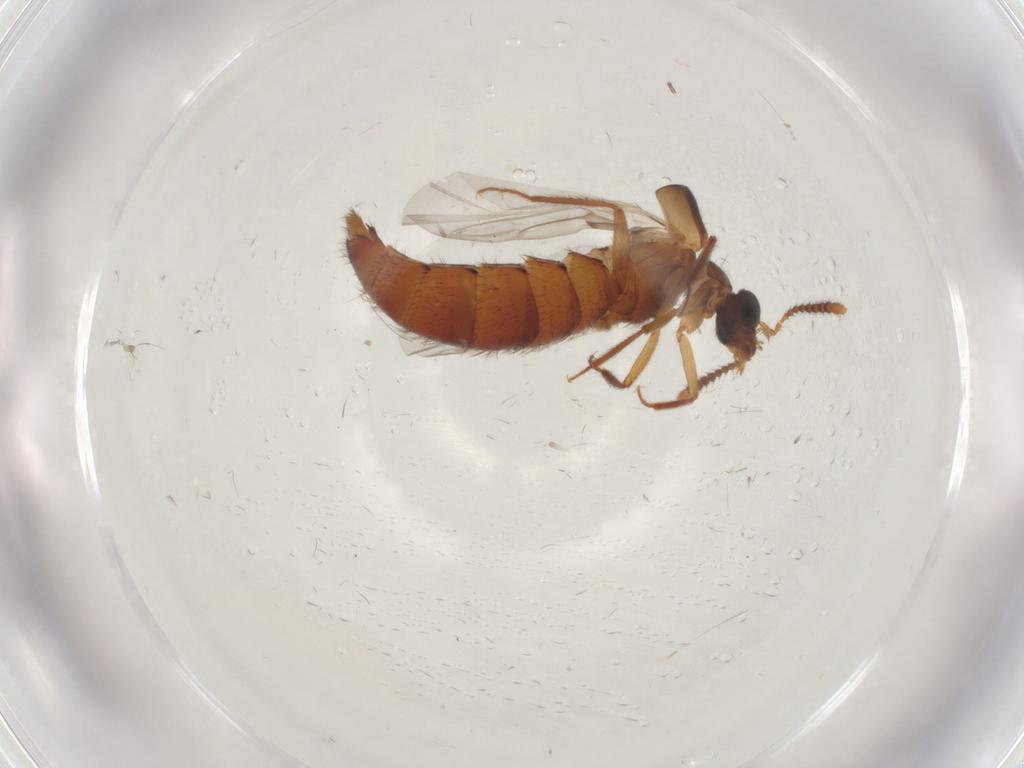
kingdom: Animalia
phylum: Arthropoda
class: Insecta
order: Coleoptera
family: Staphylinidae
